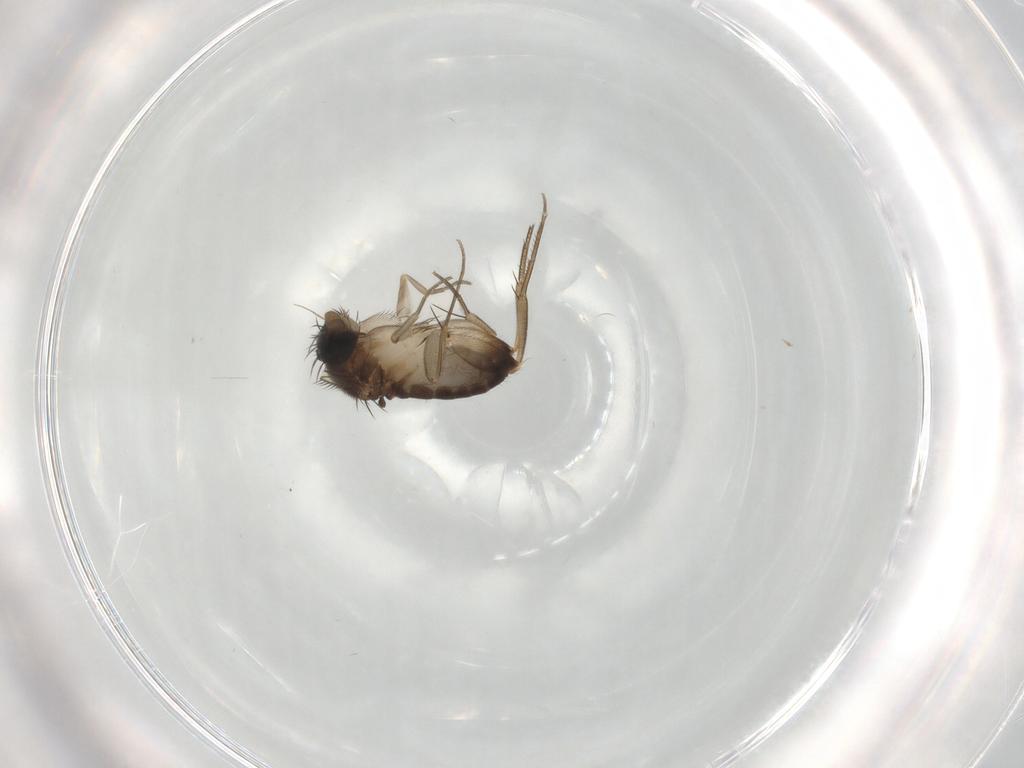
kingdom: Animalia
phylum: Arthropoda
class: Insecta
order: Diptera
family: Phoridae
